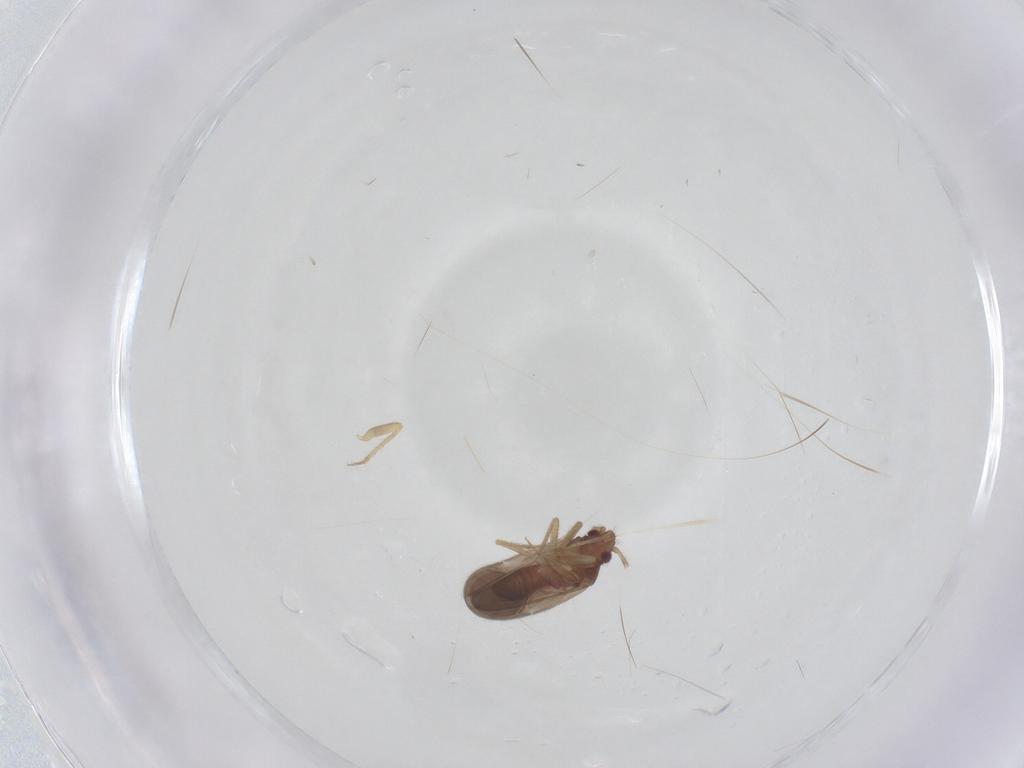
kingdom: Animalia
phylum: Arthropoda
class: Insecta
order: Hemiptera
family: Ceratocombidae
